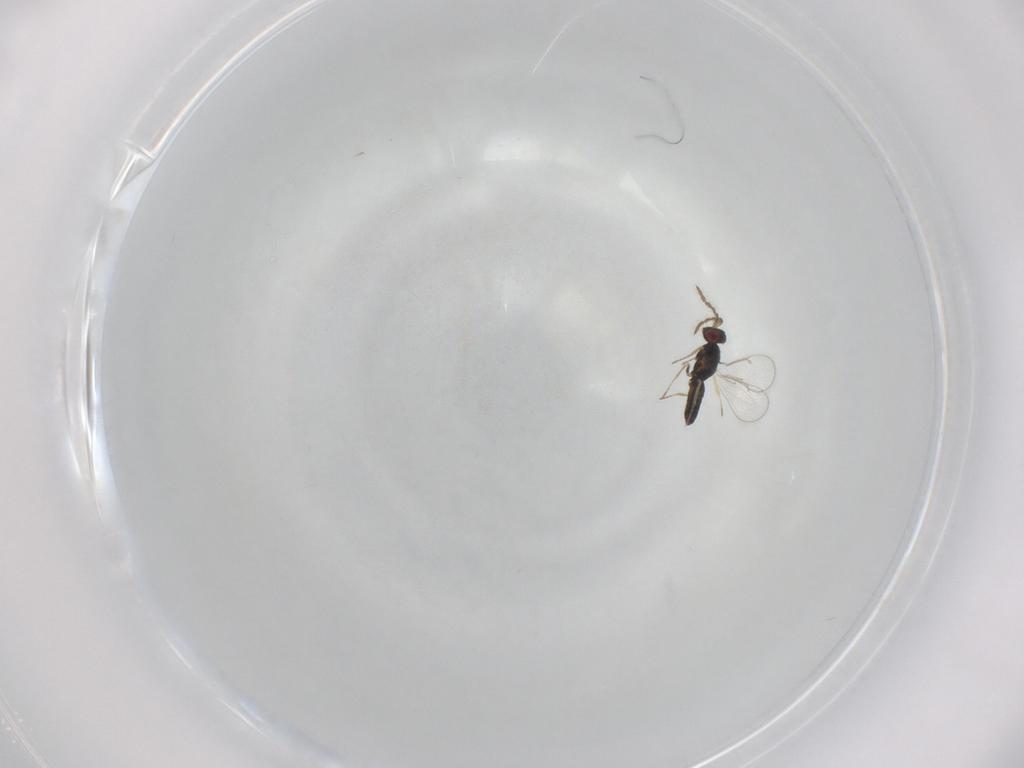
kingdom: Animalia
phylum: Arthropoda
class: Insecta
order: Hymenoptera
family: Eulophidae
